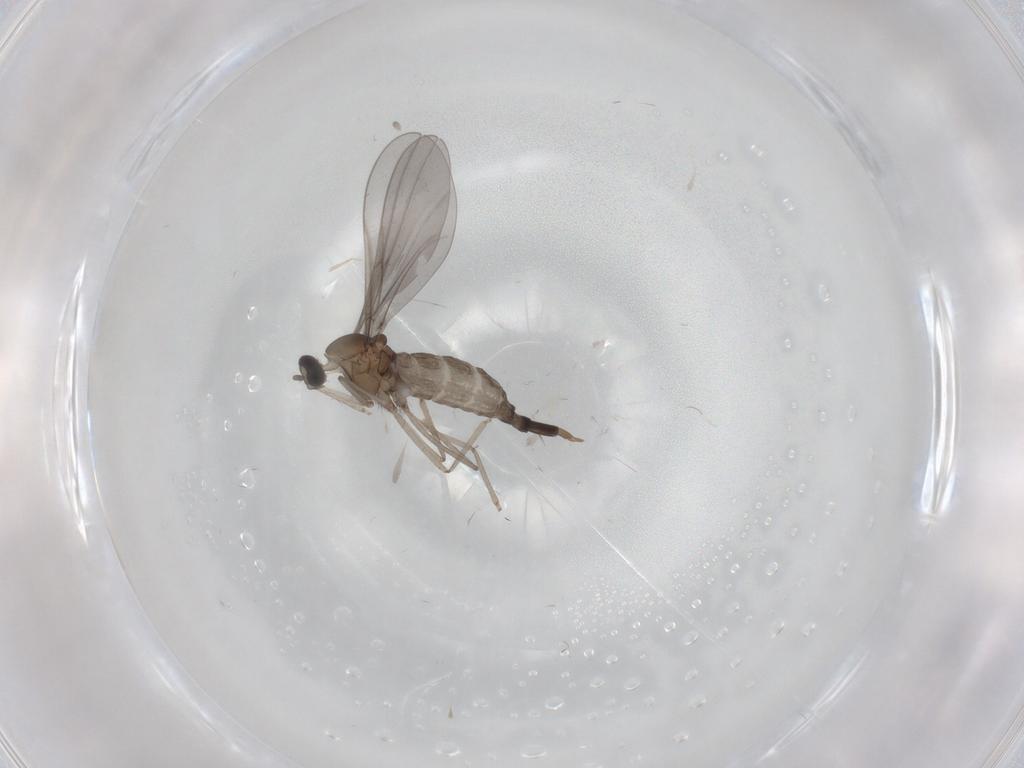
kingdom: Animalia
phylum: Arthropoda
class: Insecta
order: Diptera
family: Cecidomyiidae
